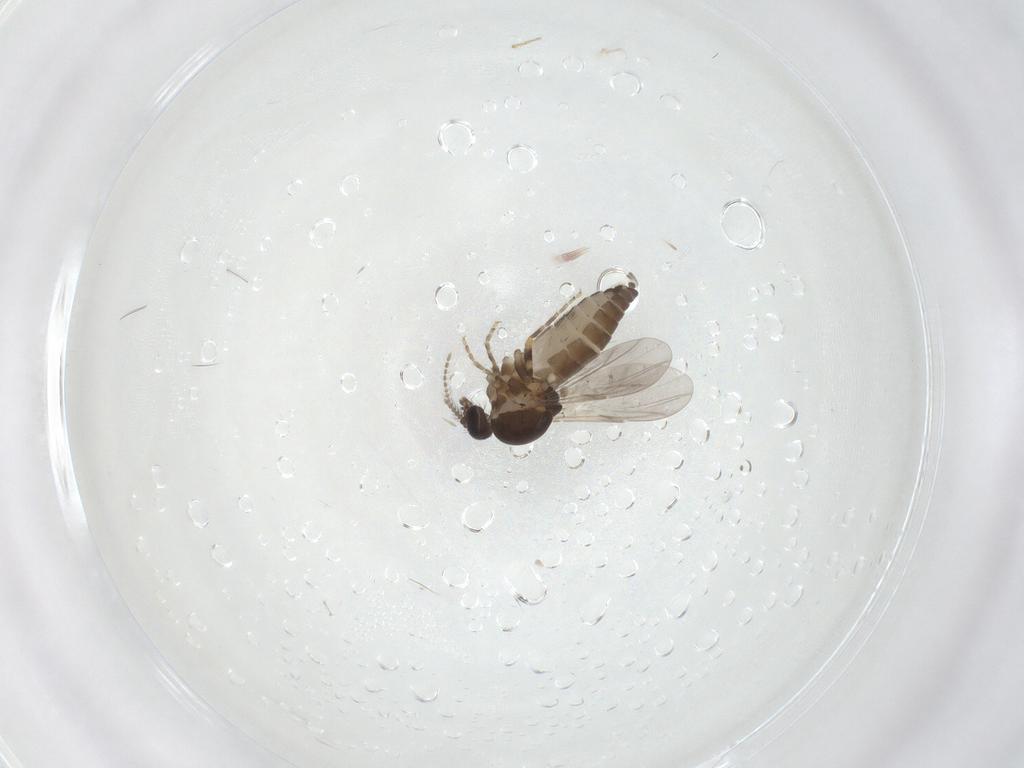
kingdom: Animalia
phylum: Arthropoda
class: Insecta
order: Diptera
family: Ceratopogonidae
